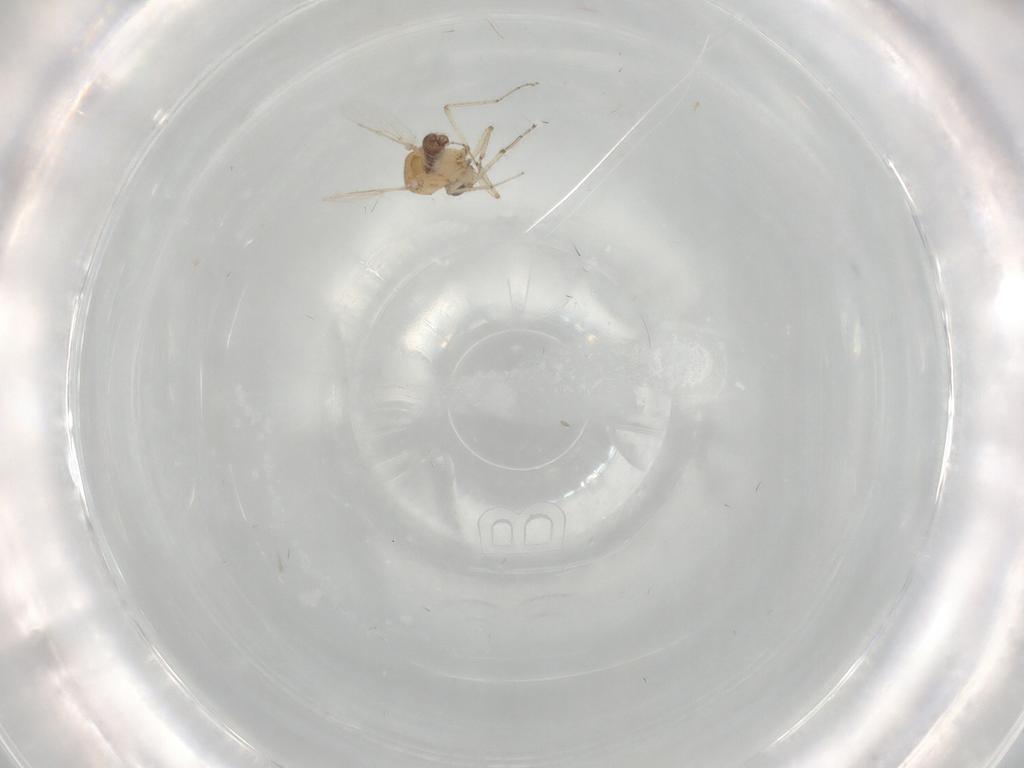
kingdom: Animalia
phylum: Arthropoda
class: Insecta
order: Diptera
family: Ceratopogonidae
